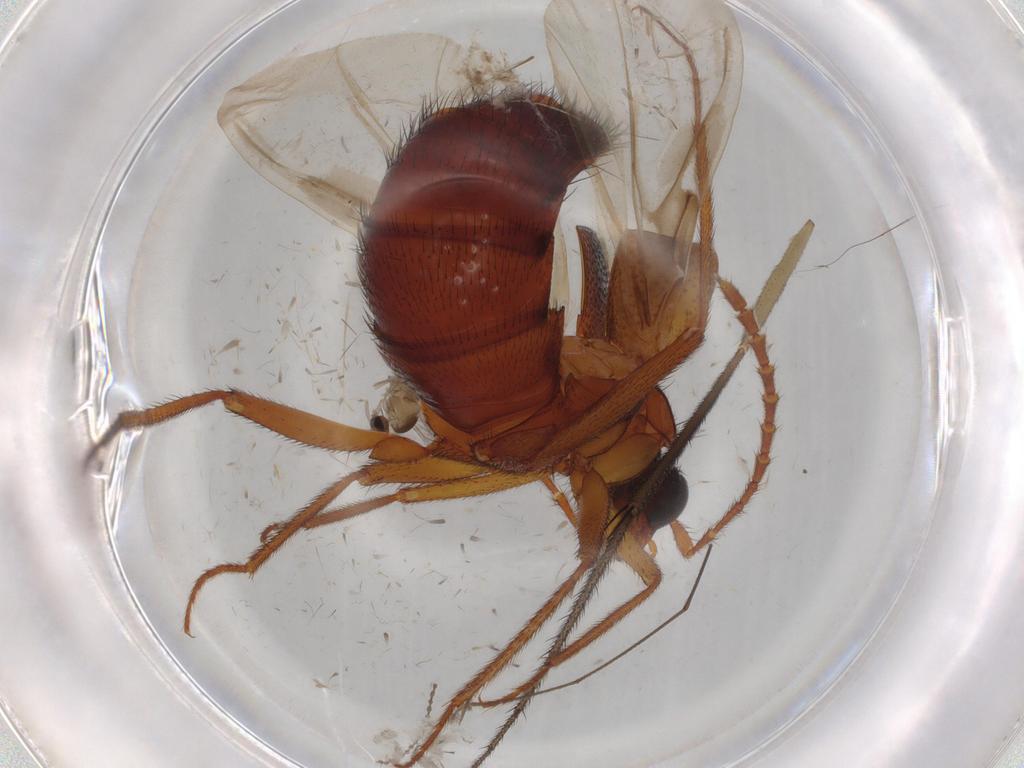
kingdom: Animalia
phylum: Arthropoda
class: Insecta
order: Coleoptera
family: Staphylinidae
